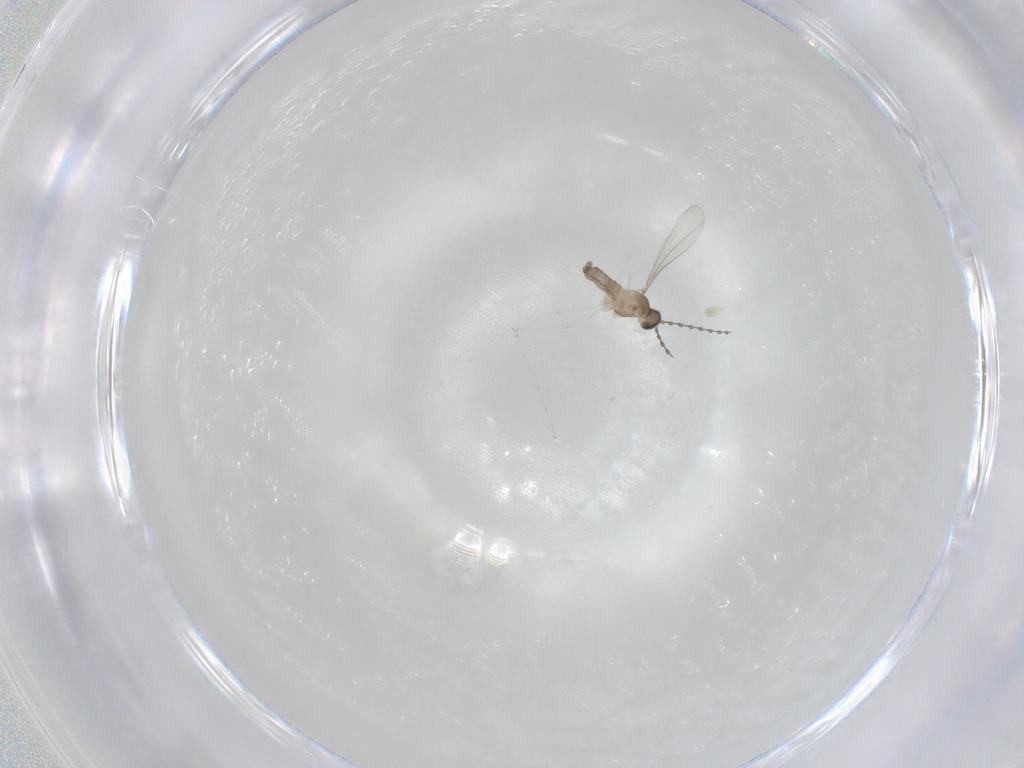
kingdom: Animalia
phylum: Arthropoda
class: Insecta
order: Diptera
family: Cecidomyiidae
